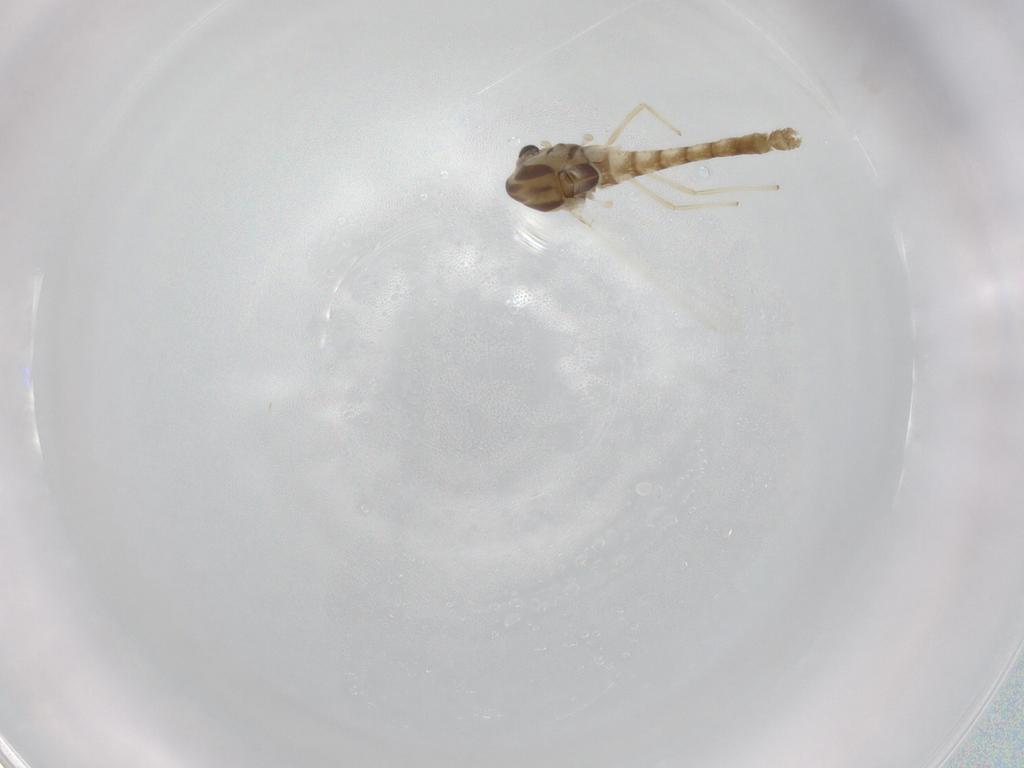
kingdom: Animalia
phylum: Arthropoda
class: Insecta
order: Diptera
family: Chironomidae
